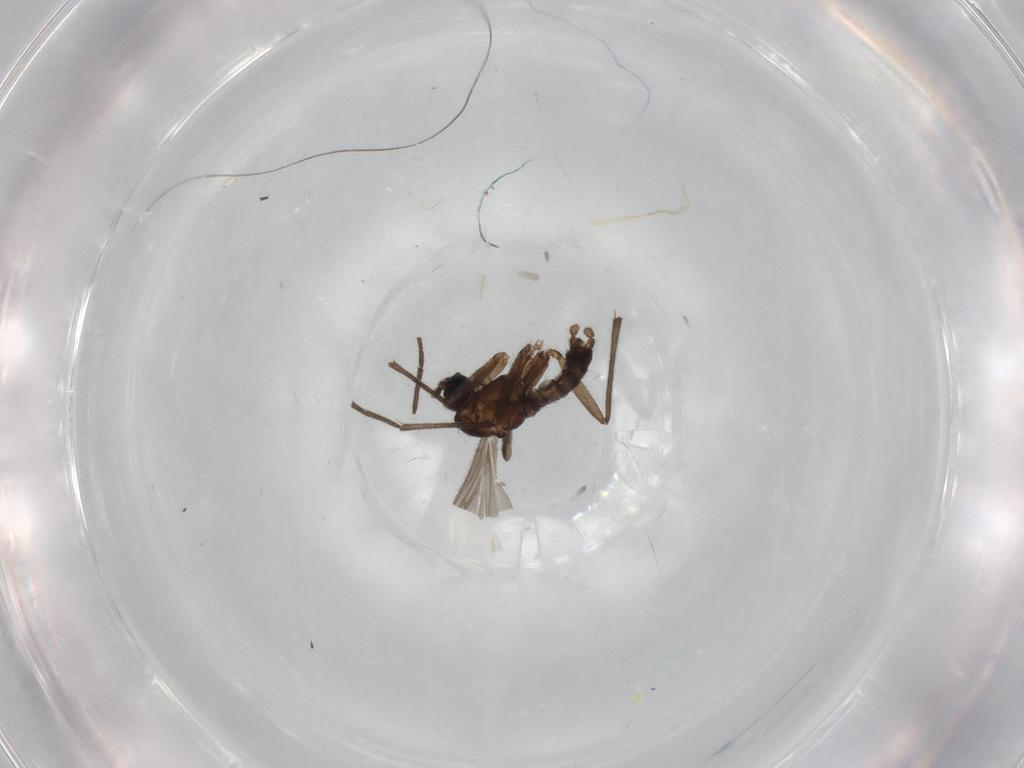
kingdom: Animalia
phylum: Arthropoda
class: Insecta
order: Diptera
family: Sciaridae
